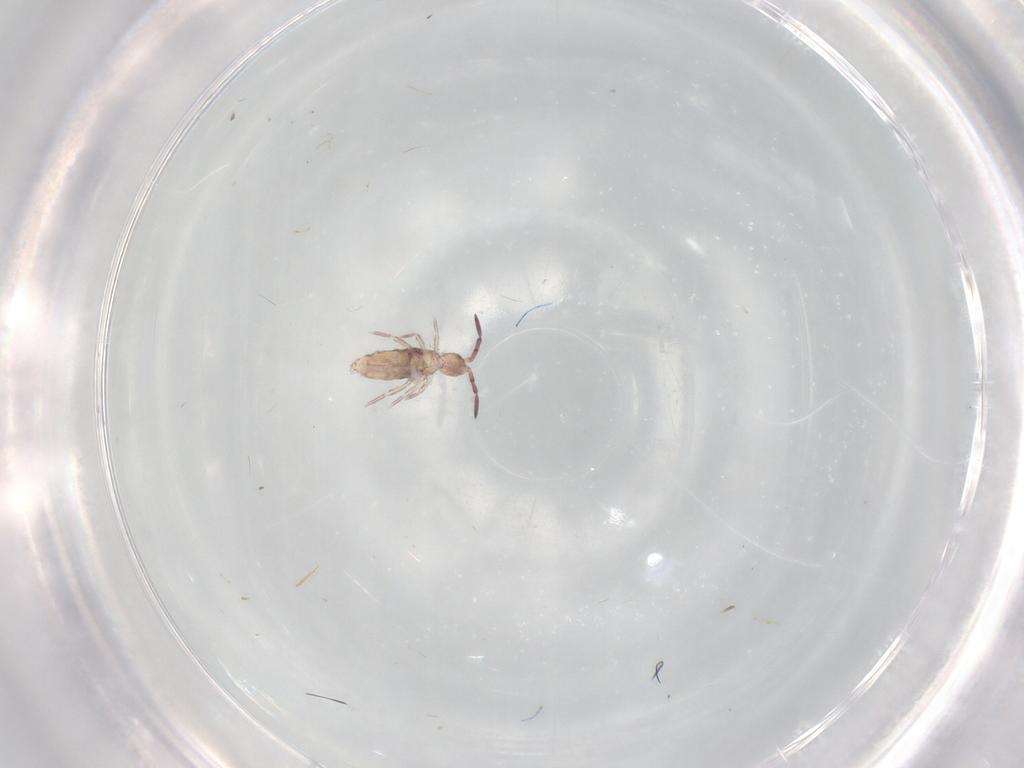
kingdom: Animalia
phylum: Arthropoda
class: Collembola
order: Entomobryomorpha
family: Entomobryidae
